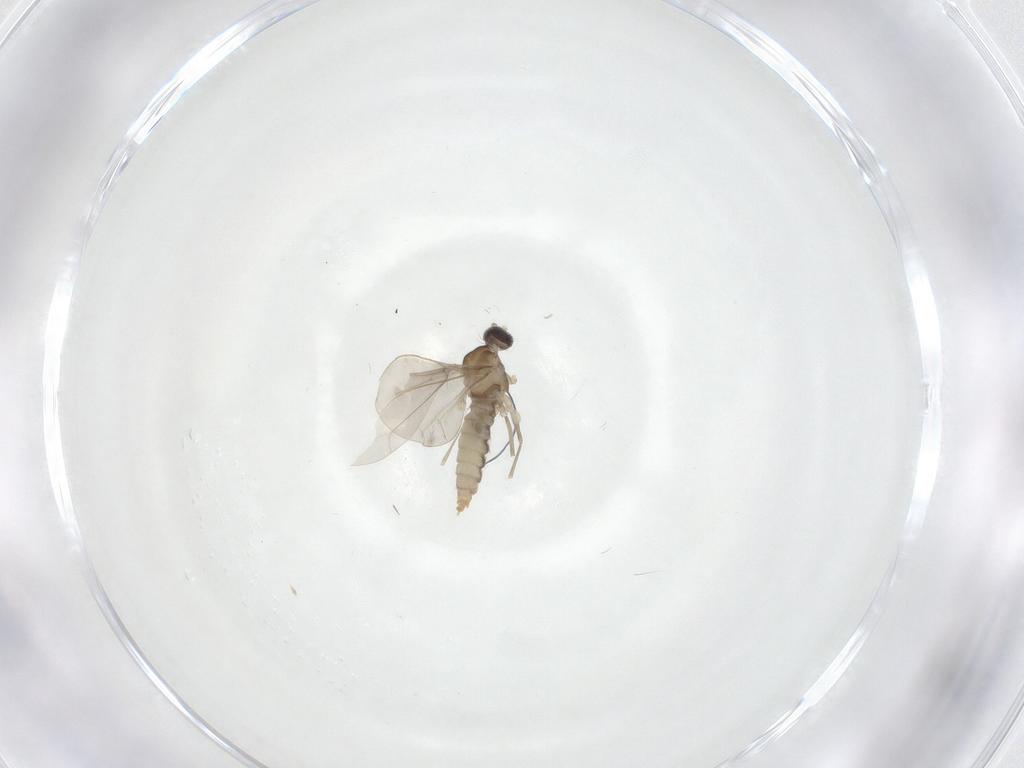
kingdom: Animalia
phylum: Arthropoda
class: Insecta
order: Diptera
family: Cecidomyiidae
